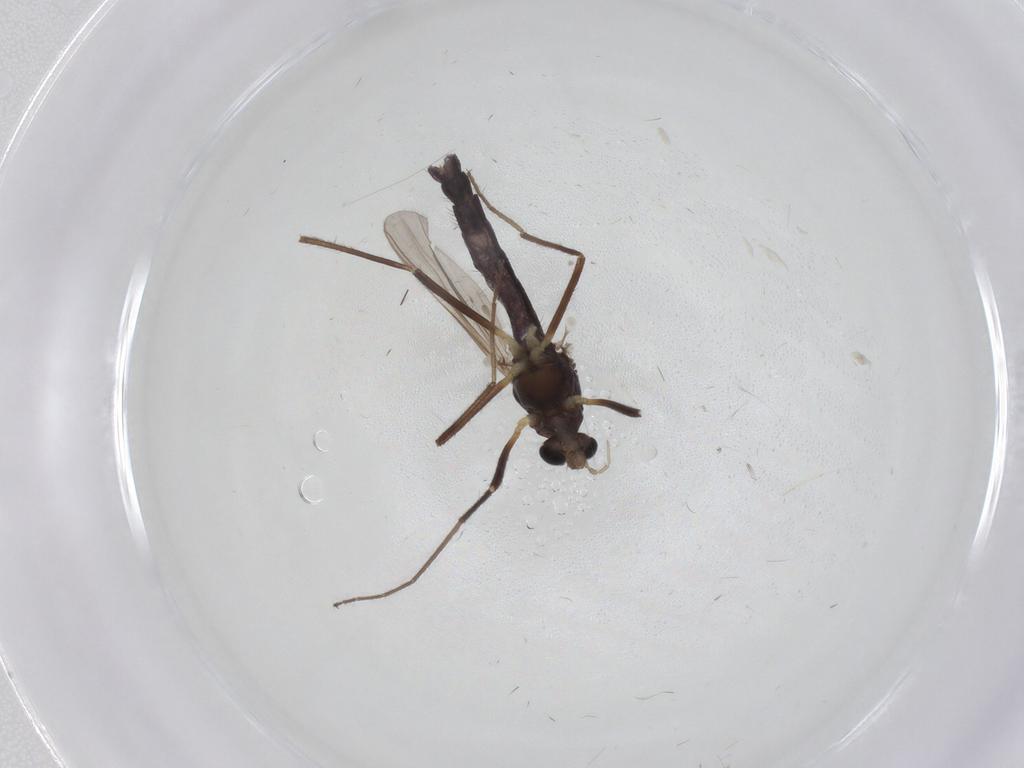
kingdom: Animalia
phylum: Arthropoda
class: Insecta
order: Diptera
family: Chironomidae
